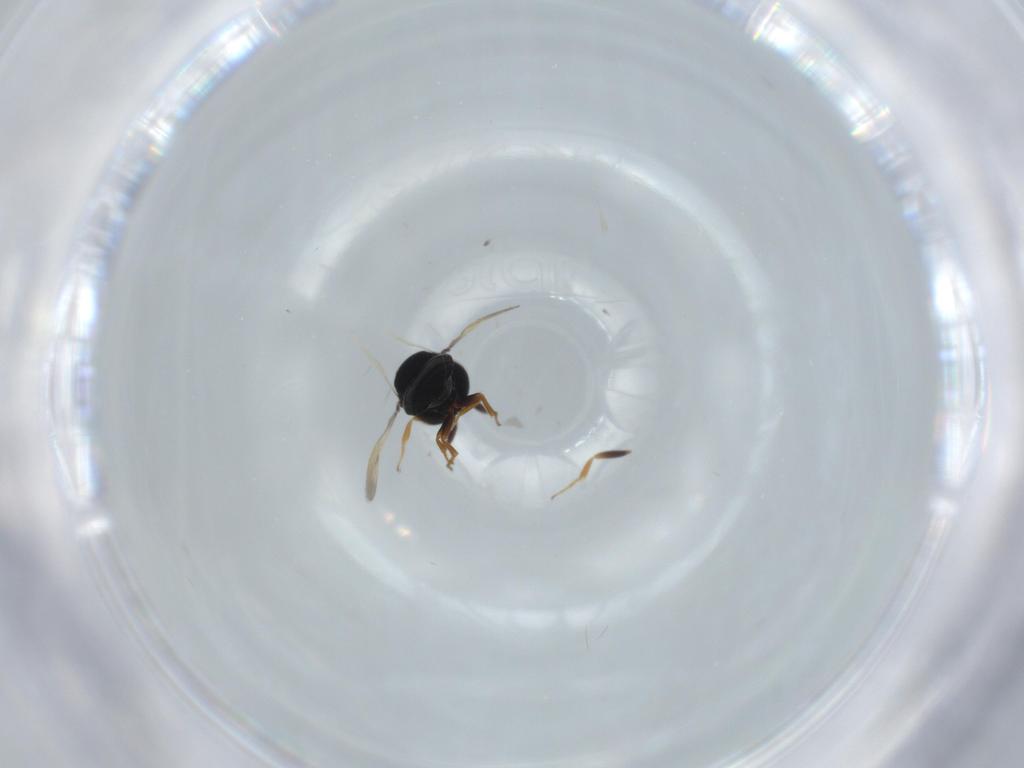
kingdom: Animalia
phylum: Arthropoda
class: Insecta
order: Hymenoptera
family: Scelionidae
